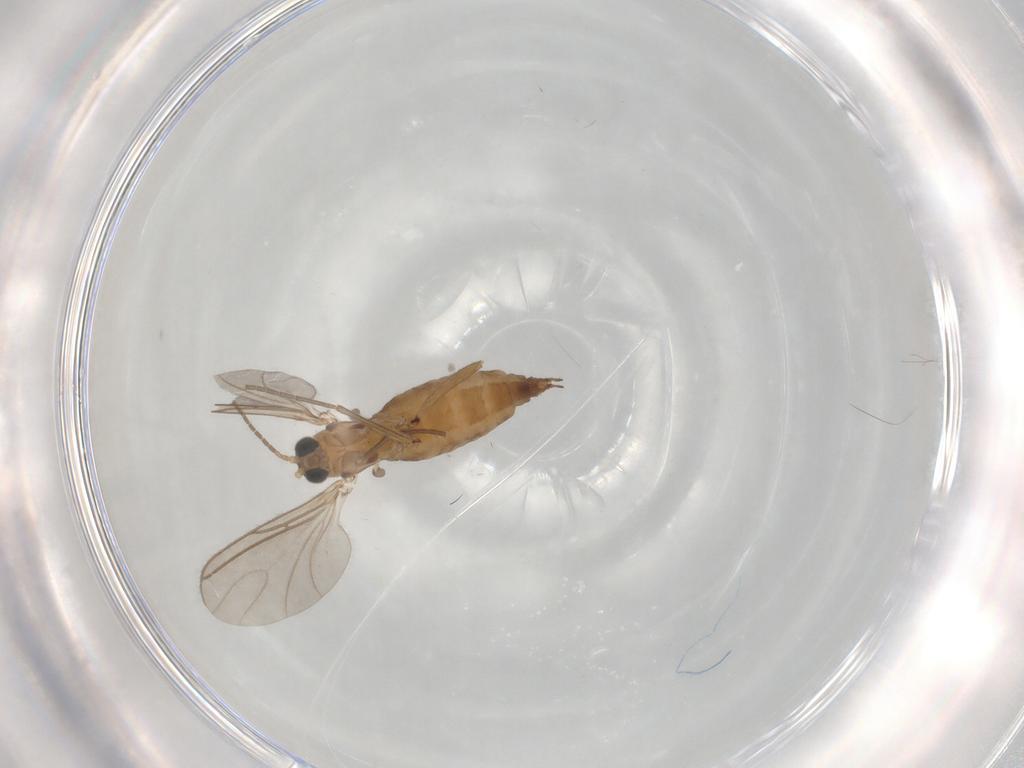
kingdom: Animalia
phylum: Arthropoda
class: Insecta
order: Diptera
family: Sciaridae
